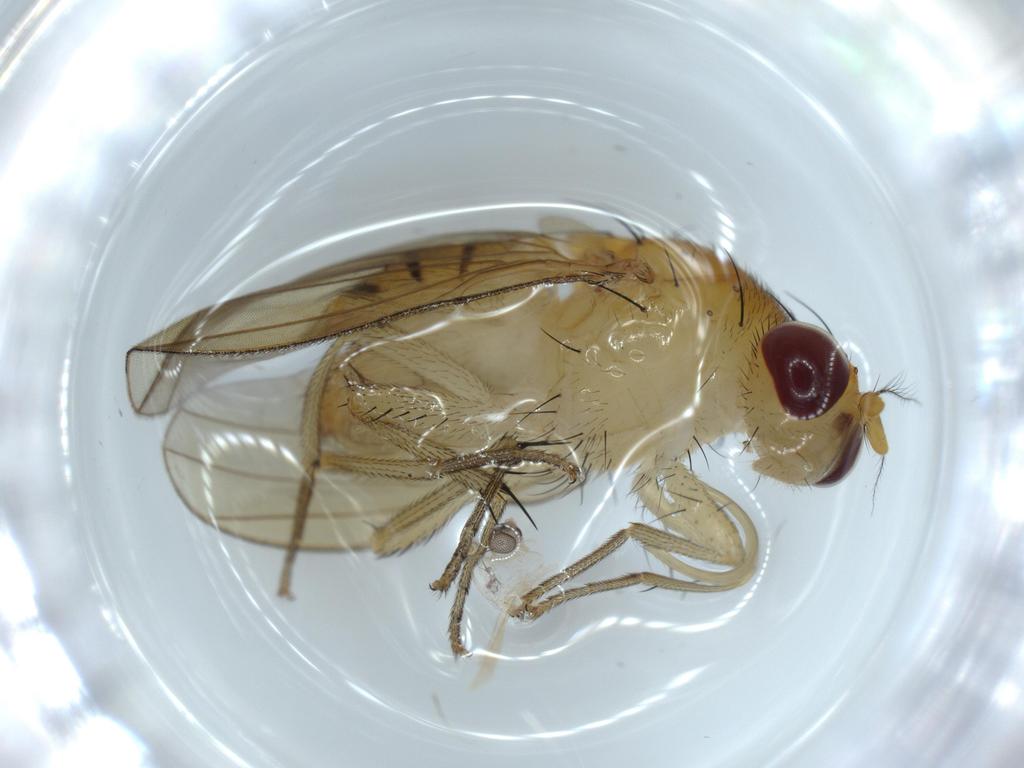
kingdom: Animalia
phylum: Arthropoda
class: Insecta
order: Diptera
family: Cecidomyiidae
